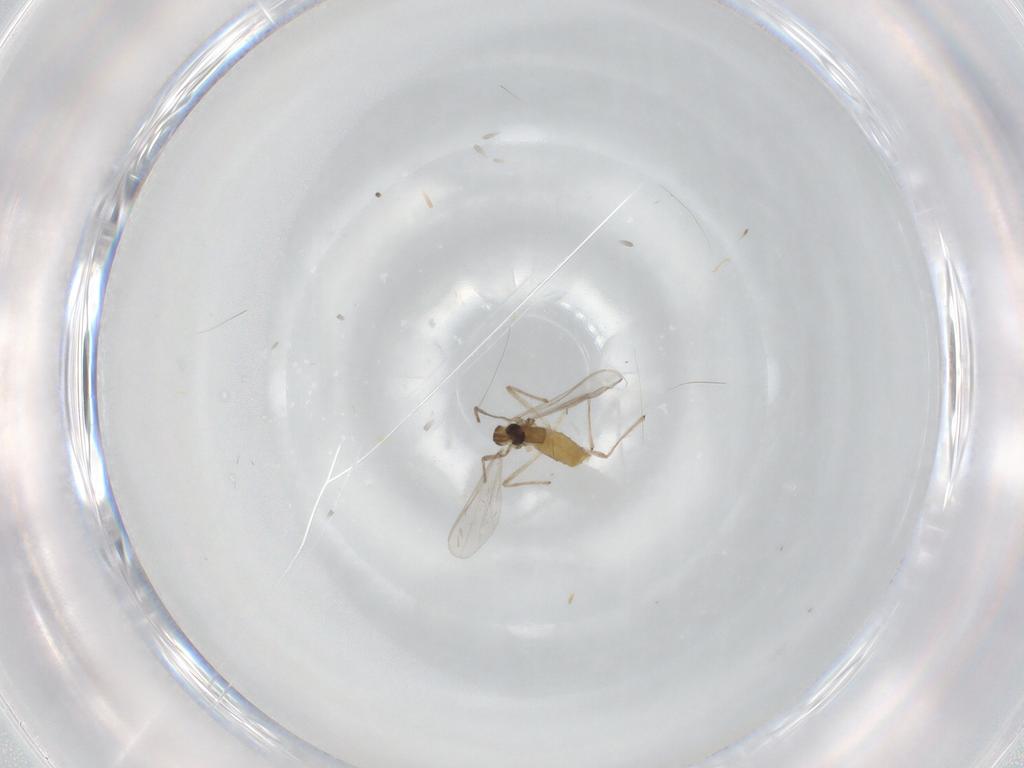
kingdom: Animalia
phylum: Arthropoda
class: Insecta
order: Diptera
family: Chironomidae
